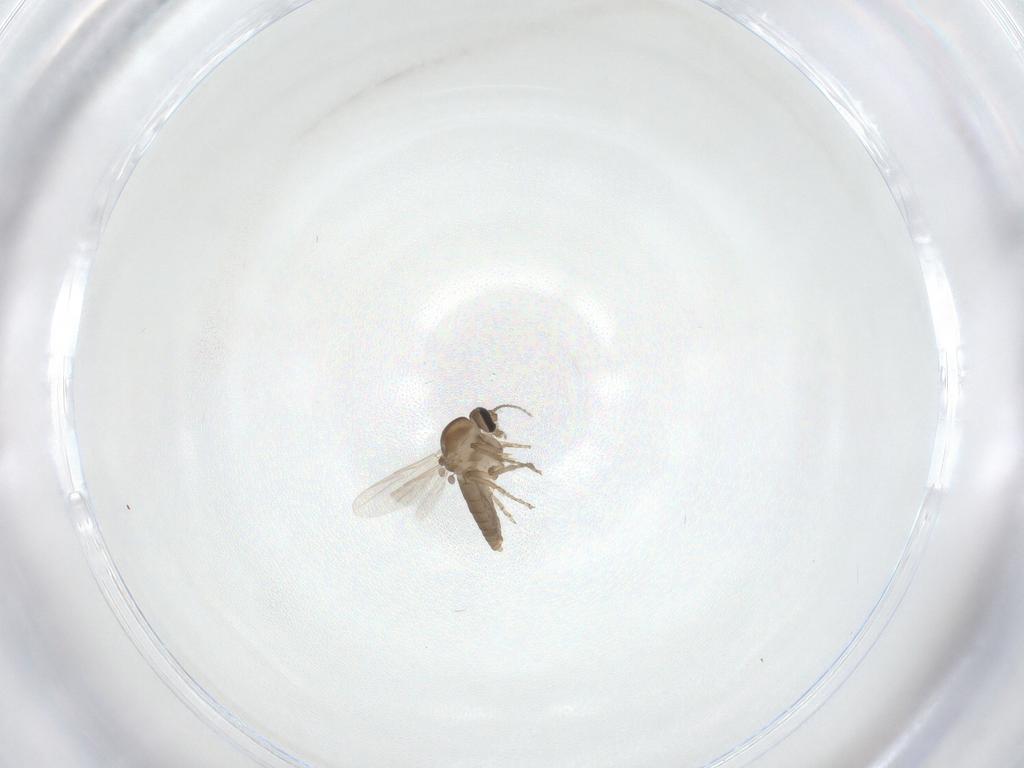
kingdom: Animalia
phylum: Arthropoda
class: Insecta
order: Diptera
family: Ceratopogonidae
